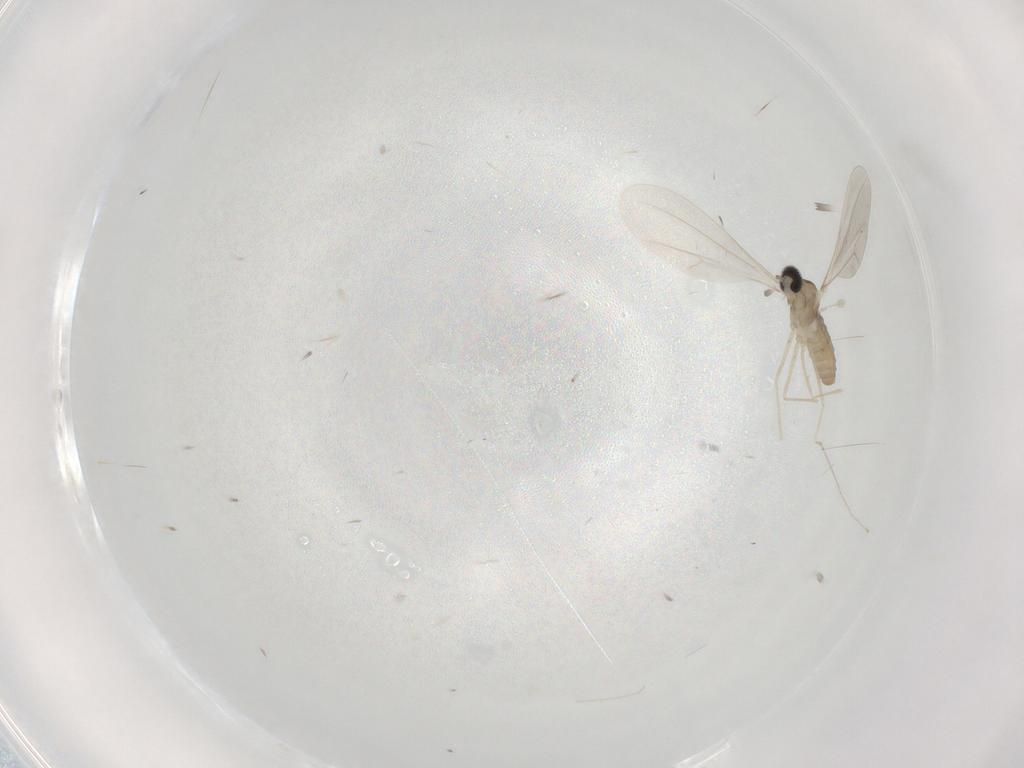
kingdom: Animalia
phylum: Arthropoda
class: Insecta
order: Diptera
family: Cecidomyiidae
